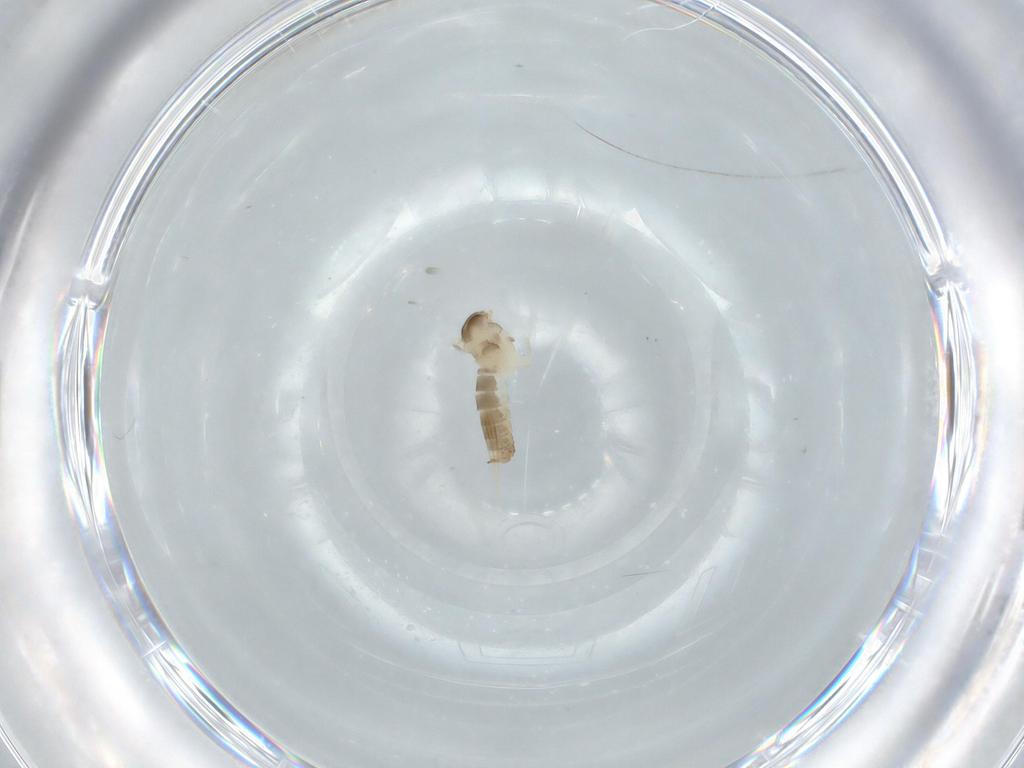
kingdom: Animalia
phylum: Arthropoda
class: Insecta
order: Diptera
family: Cecidomyiidae
